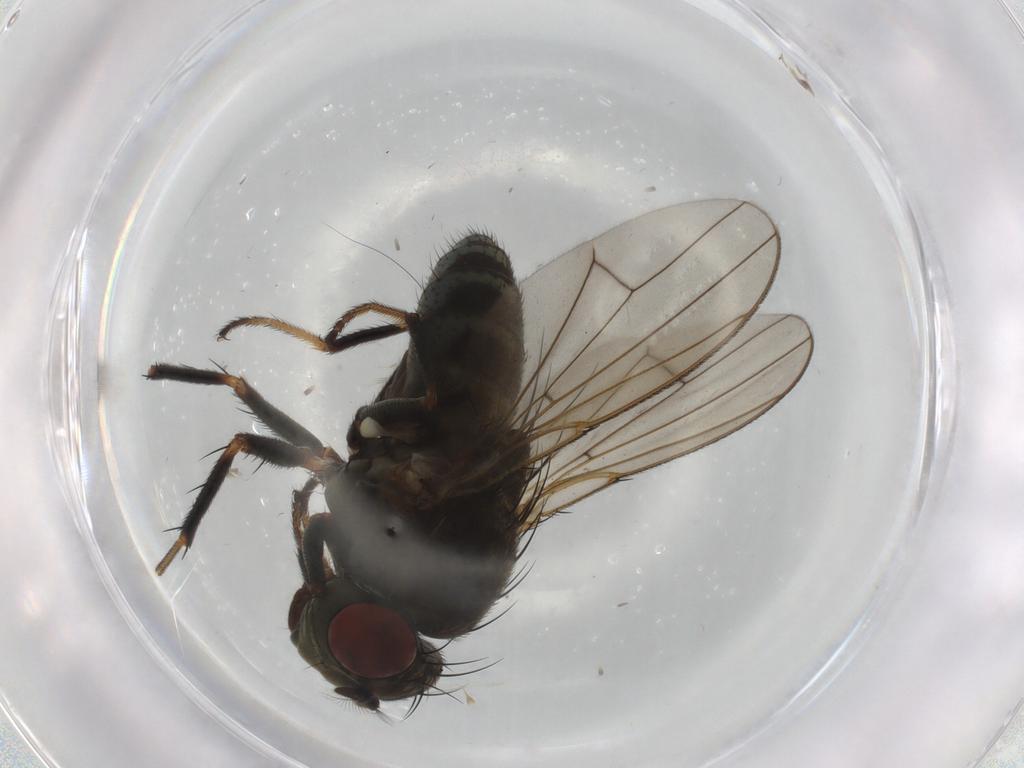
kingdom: Animalia
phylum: Arthropoda
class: Insecta
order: Diptera
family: Ephydridae
